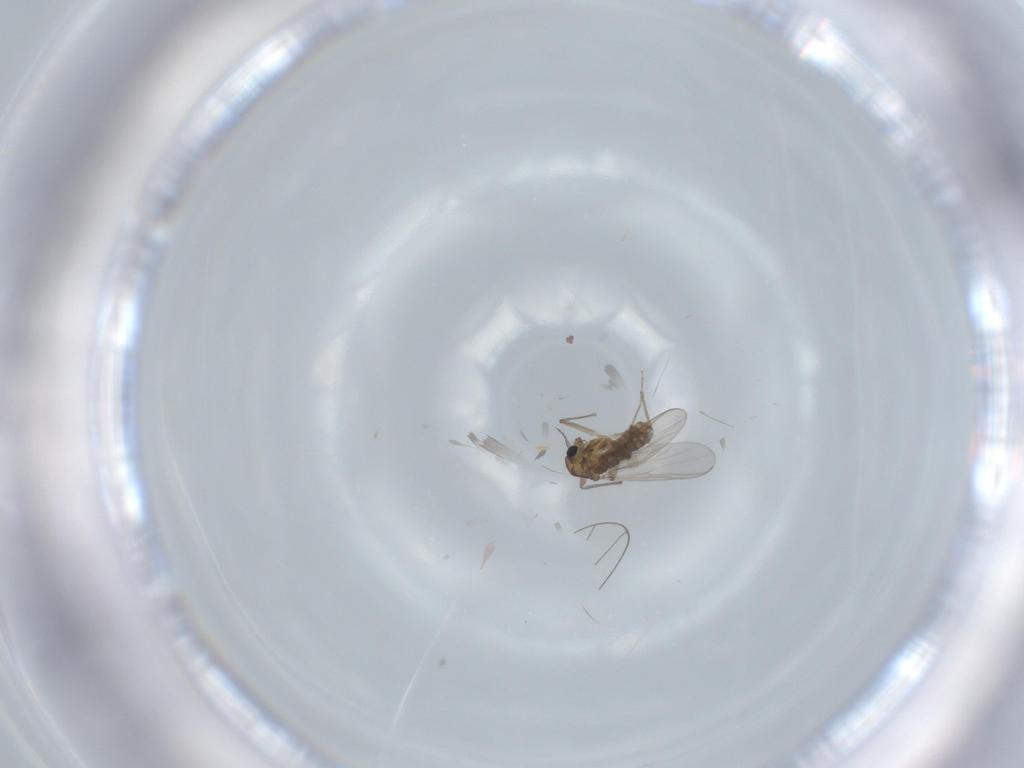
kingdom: Animalia
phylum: Arthropoda
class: Insecta
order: Diptera
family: Chironomidae
